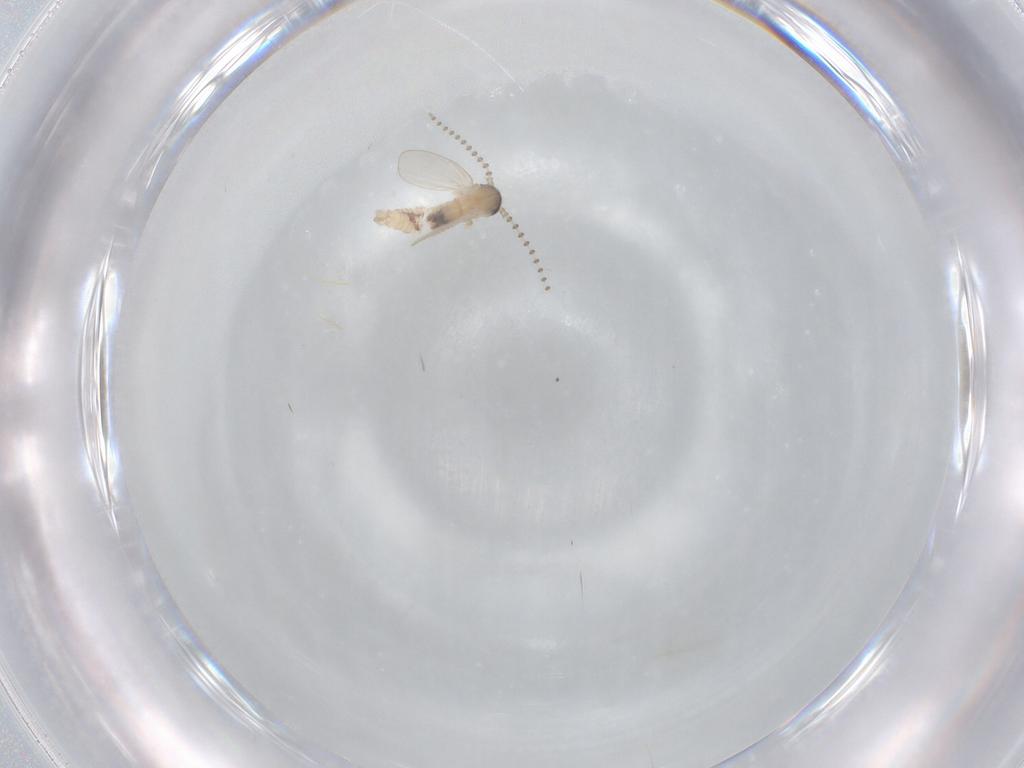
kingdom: Animalia
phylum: Arthropoda
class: Insecta
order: Diptera
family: Psychodidae
